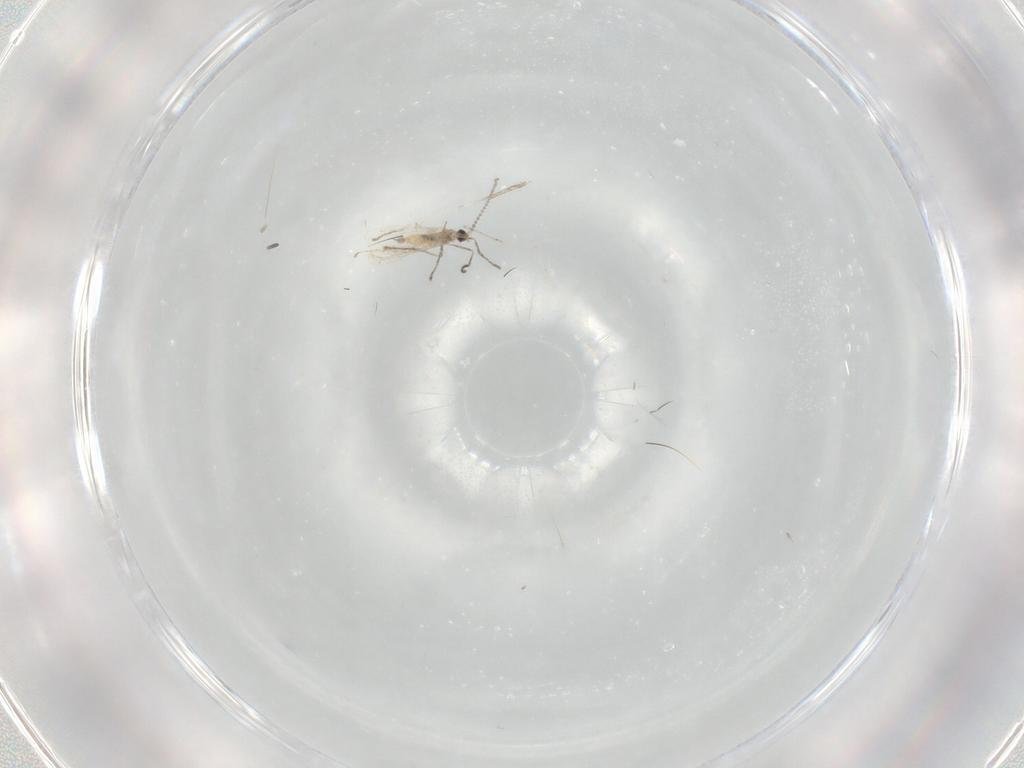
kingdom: Animalia
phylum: Arthropoda
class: Insecta
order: Diptera
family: Cecidomyiidae
